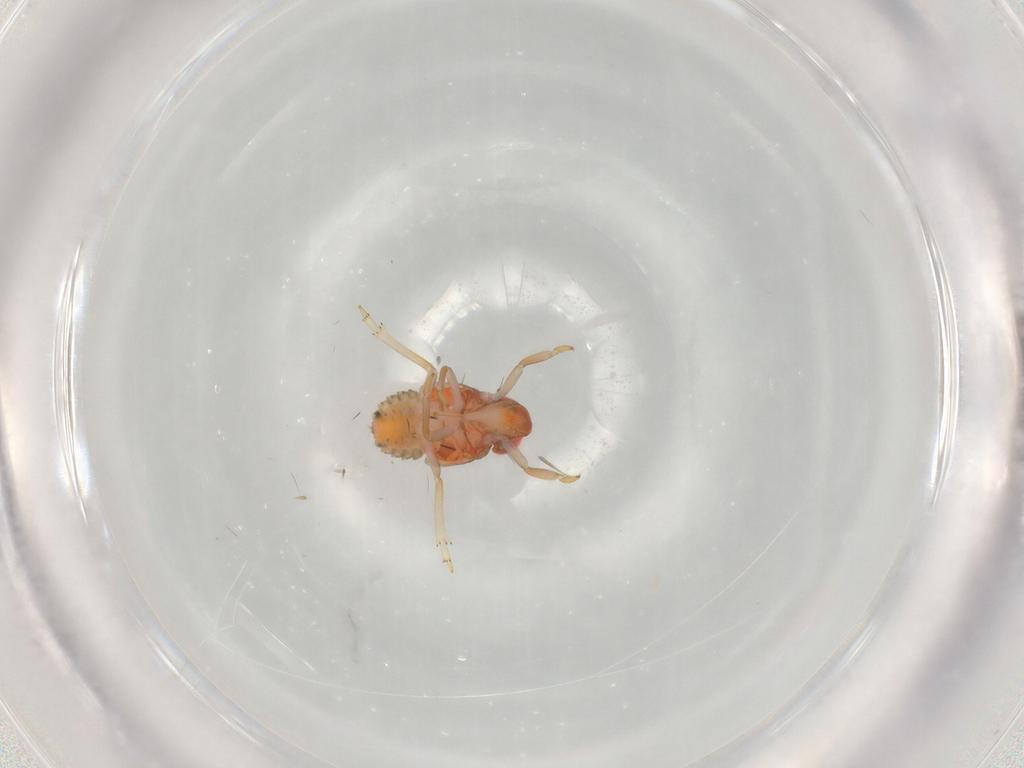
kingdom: Animalia
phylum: Arthropoda
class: Insecta
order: Hemiptera
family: Issidae
